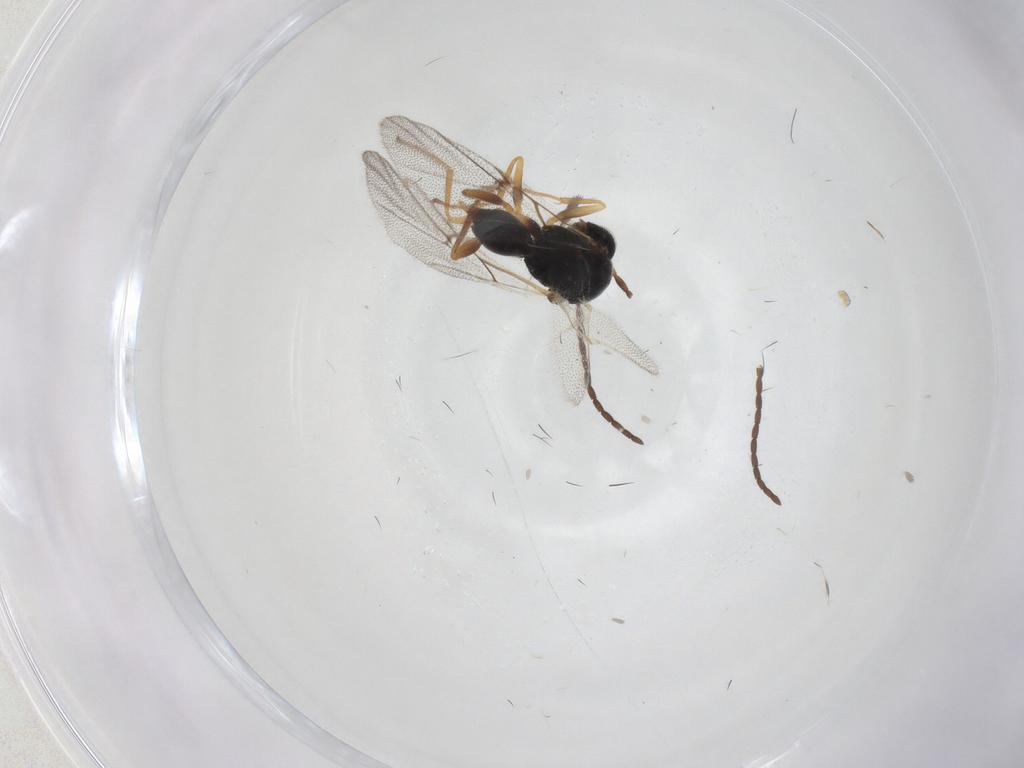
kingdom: Animalia
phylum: Arthropoda
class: Insecta
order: Hymenoptera
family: Cynipidae
